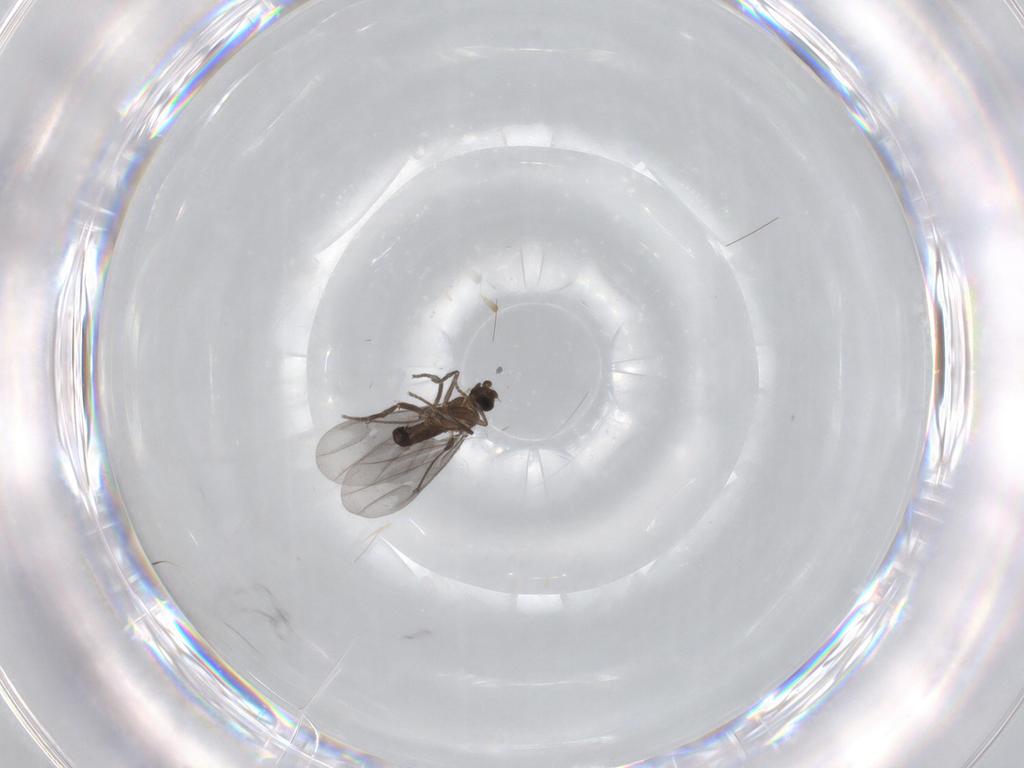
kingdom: Animalia
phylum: Arthropoda
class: Insecta
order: Diptera
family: Phoridae
